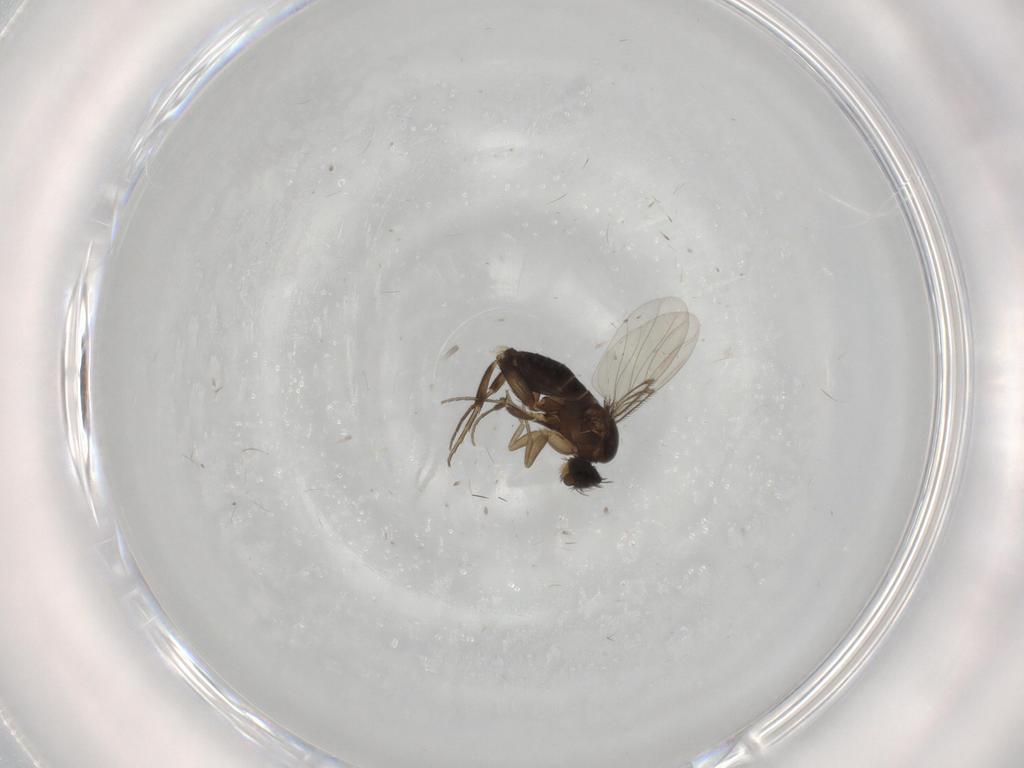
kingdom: Animalia
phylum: Arthropoda
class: Insecta
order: Diptera
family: Phoridae
